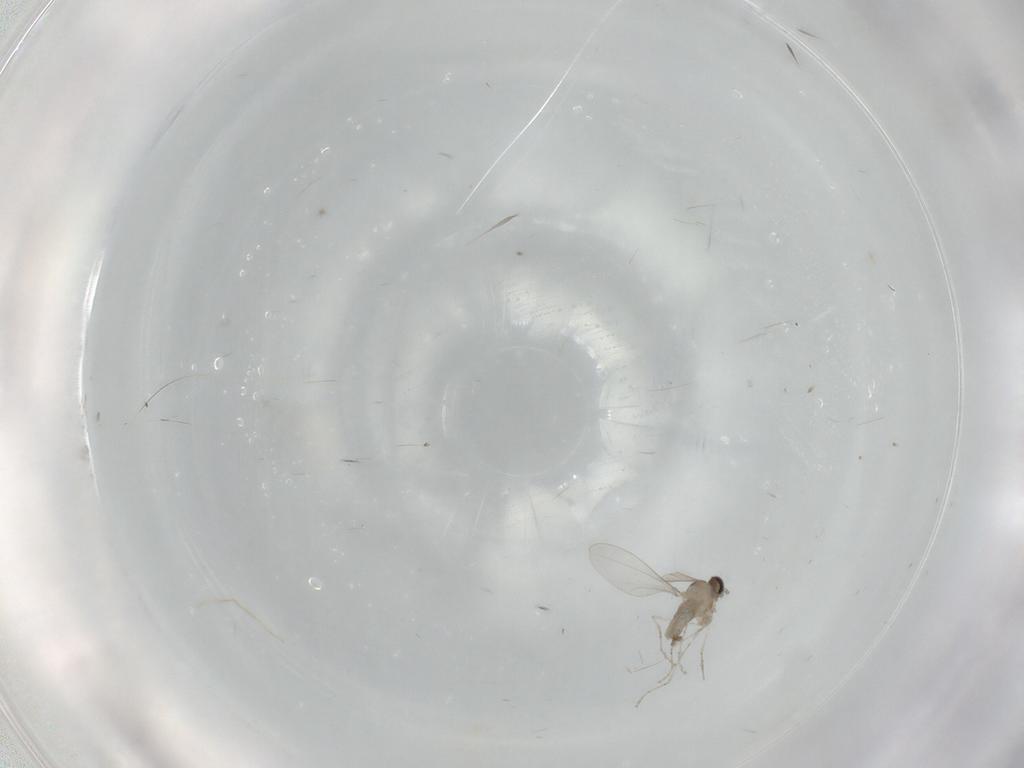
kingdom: Animalia
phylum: Arthropoda
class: Insecta
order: Diptera
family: Cecidomyiidae
